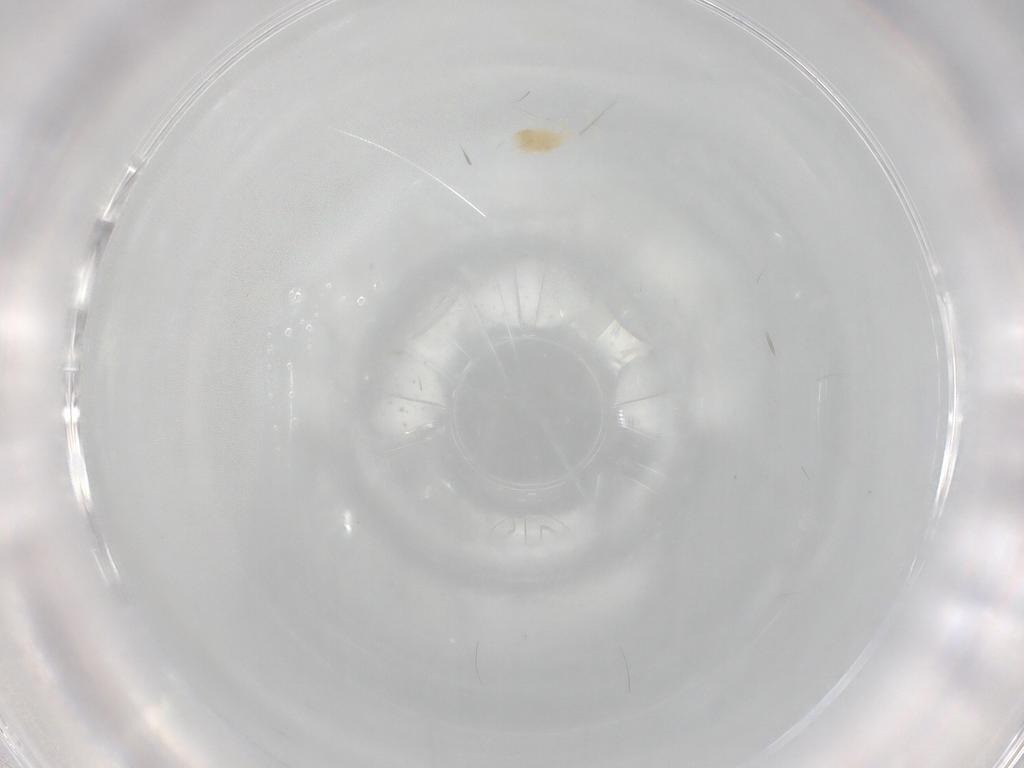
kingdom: Animalia
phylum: Arthropoda
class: Arachnida
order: Trombidiformes
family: Eupodidae
